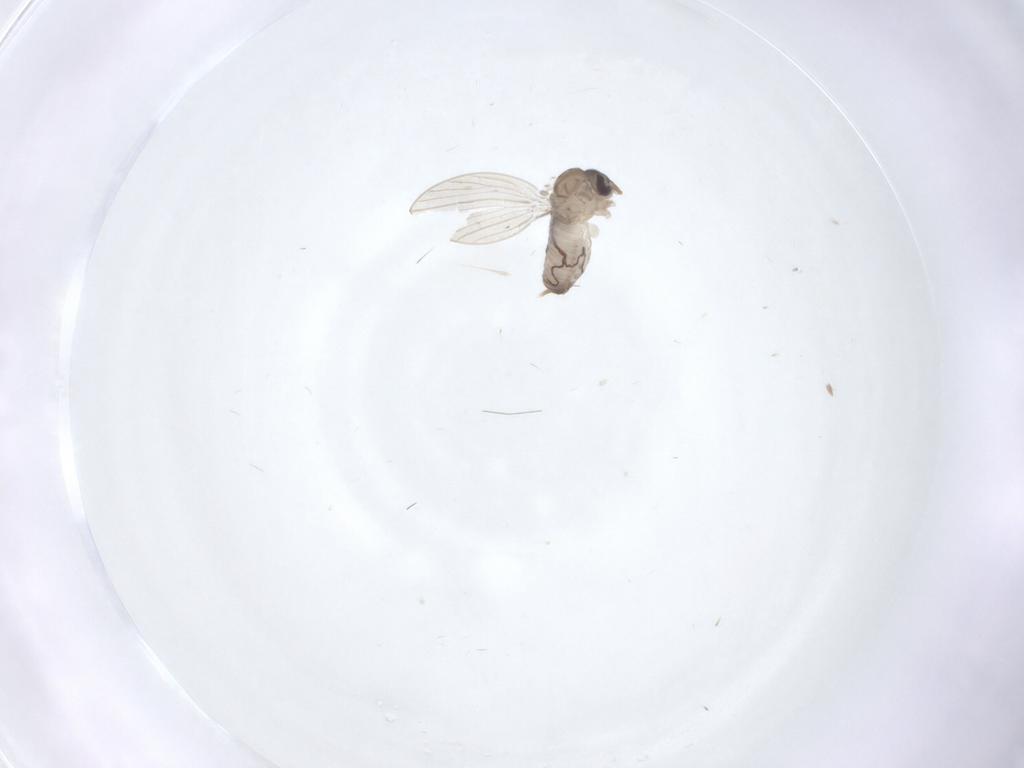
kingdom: Animalia
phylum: Arthropoda
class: Insecta
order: Diptera
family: Psychodidae
